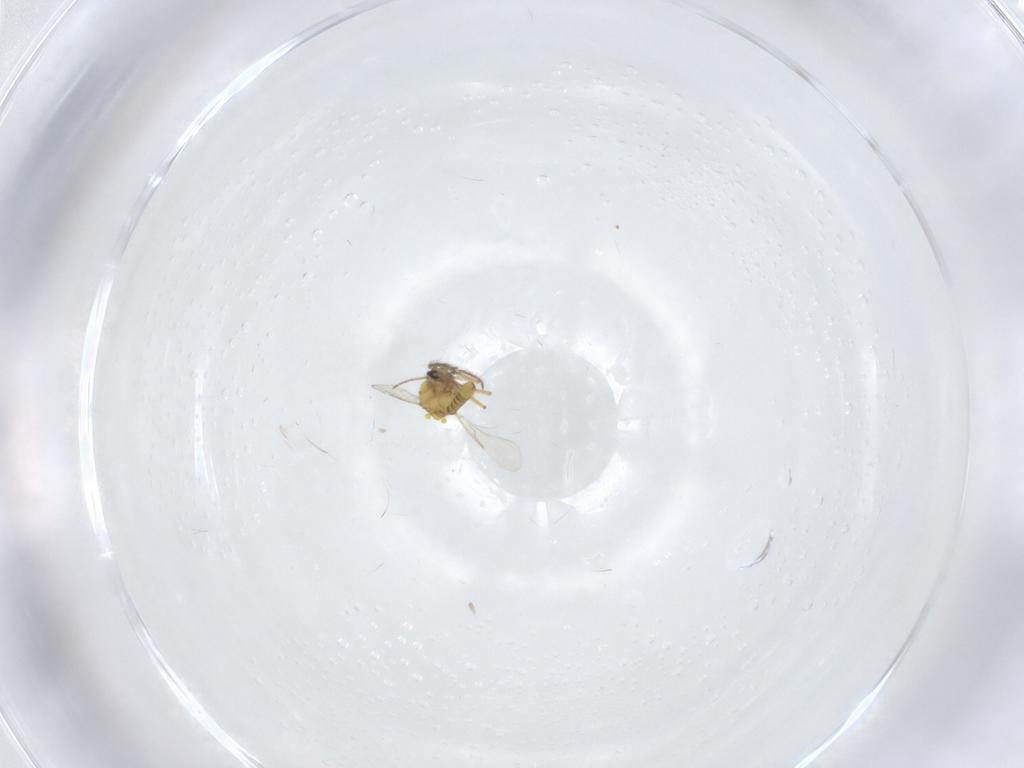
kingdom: Animalia
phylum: Arthropoda
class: Insecta
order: Diptera
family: Ceratopogonidae
